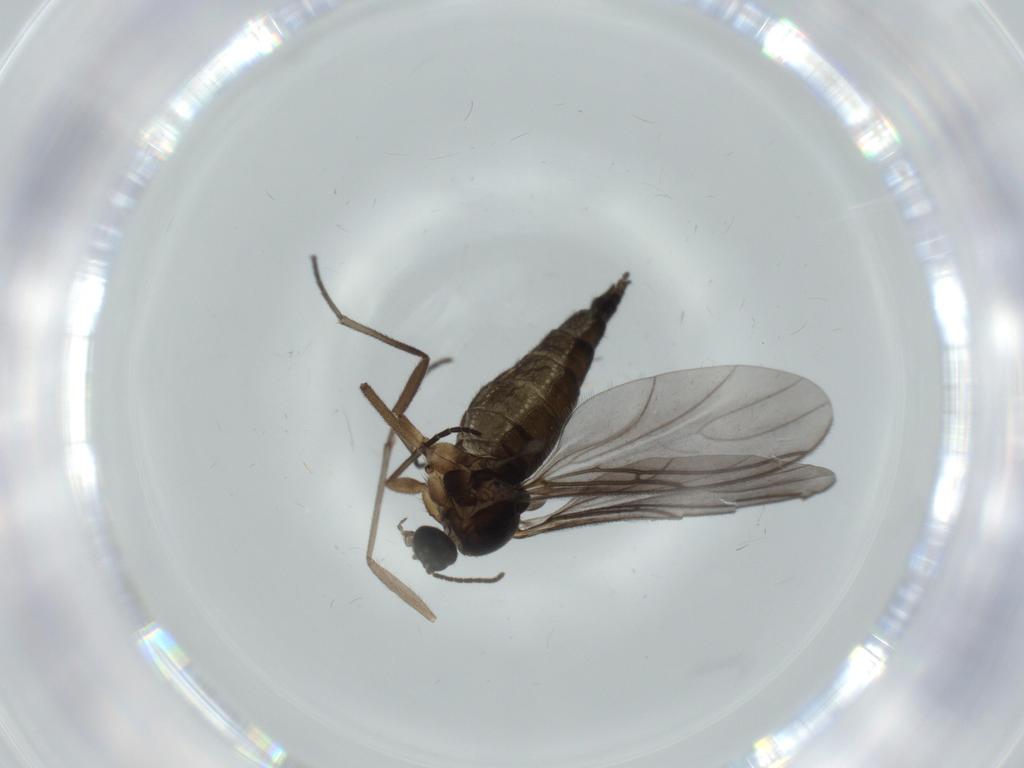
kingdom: Animalia
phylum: Arthropoda
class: Insecta
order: Diptera
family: Sciaridae
